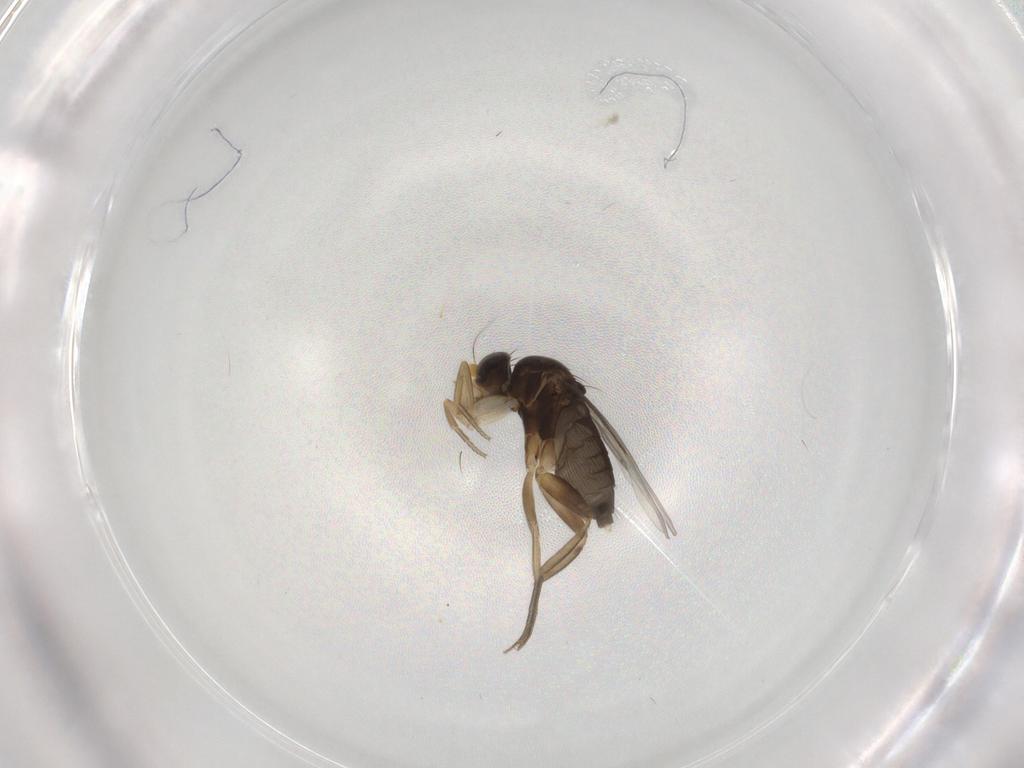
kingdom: Animalia
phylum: Arthropoda
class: Insecta
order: Diptera
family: Phoridae
